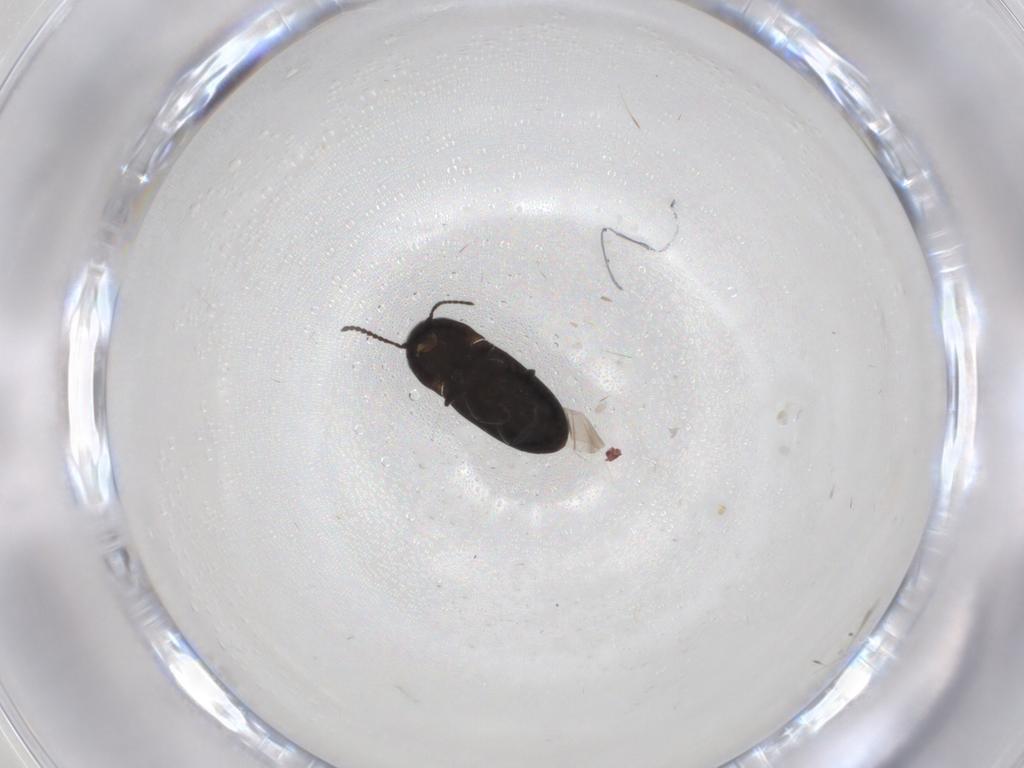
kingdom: Animalia
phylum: Arthropoda
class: Insecta
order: Coleoptera
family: Elateridae
